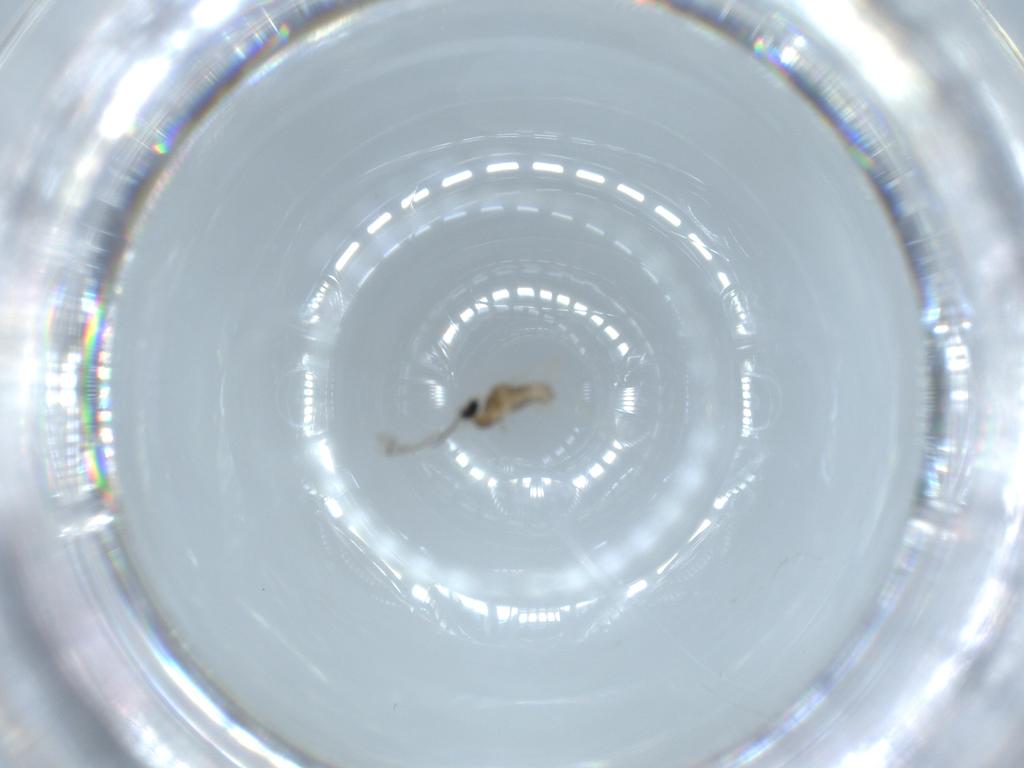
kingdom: Animalia
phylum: Arthropoda
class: Insecta
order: Diptera
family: Cecidomyiidae
